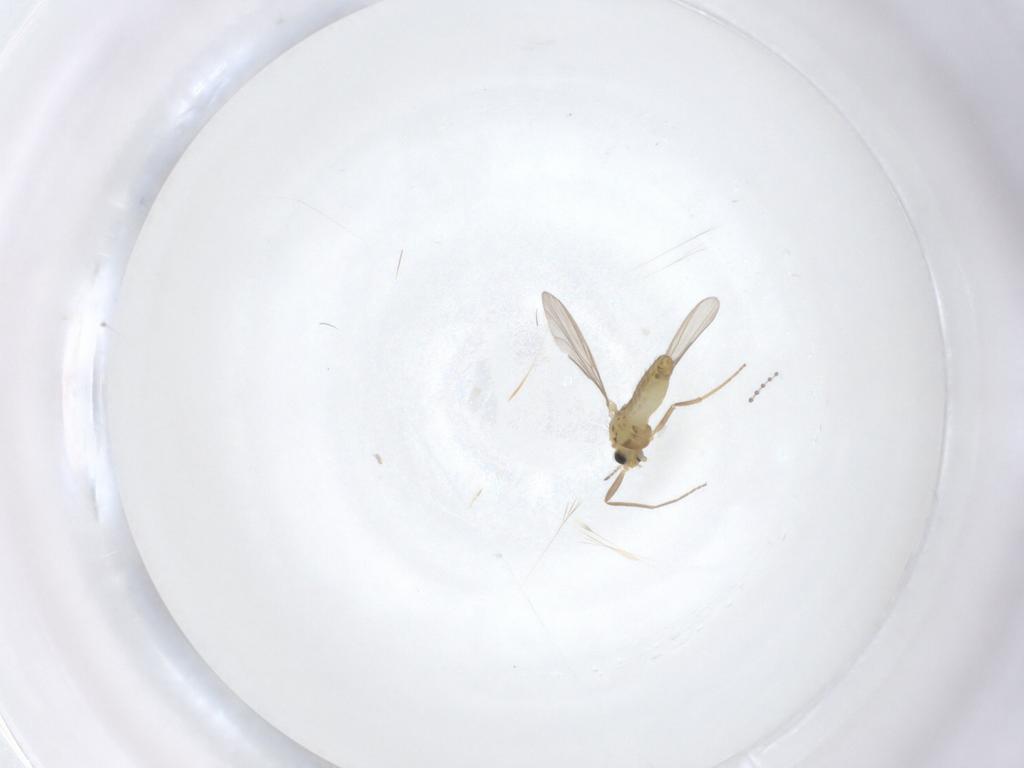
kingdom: Animalia
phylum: Arthropoda
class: Insecta
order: Diptera
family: Chironomidae
